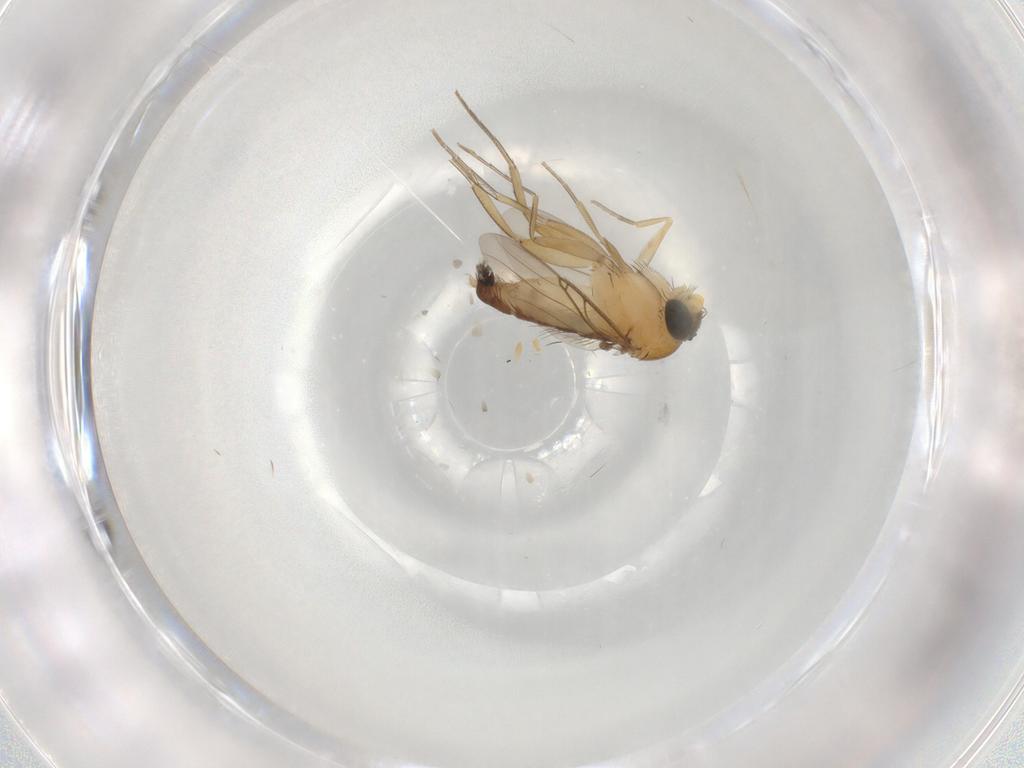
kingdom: Animalia
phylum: Arthropoda
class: Insecta
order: Diptera
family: Phoridae
